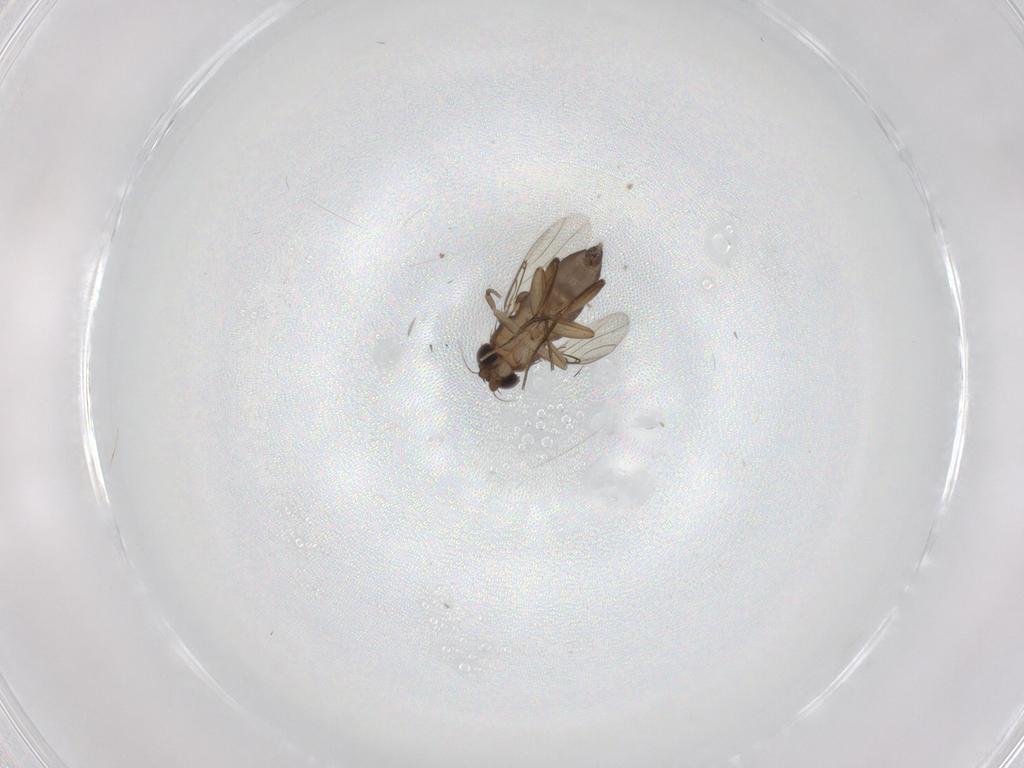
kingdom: Animalia
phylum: Arthropoda
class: Insecta
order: Diptera
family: Phoridae
